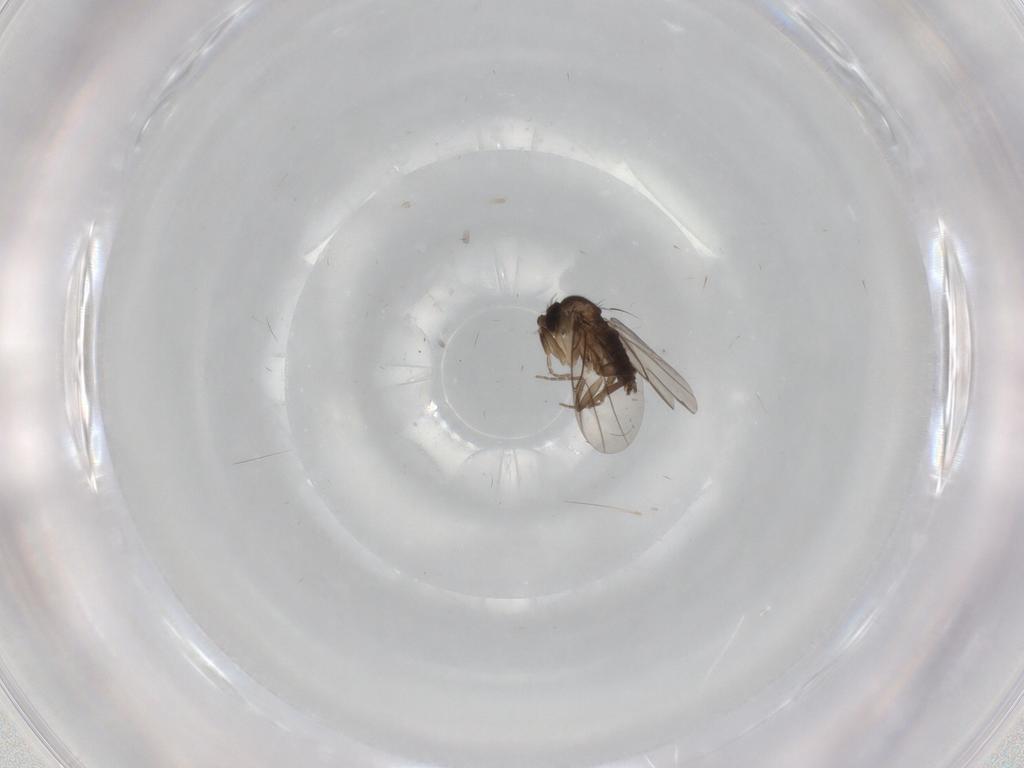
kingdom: Animalia
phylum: Arthropoda
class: Insecta
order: Diptera
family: Phoridae
